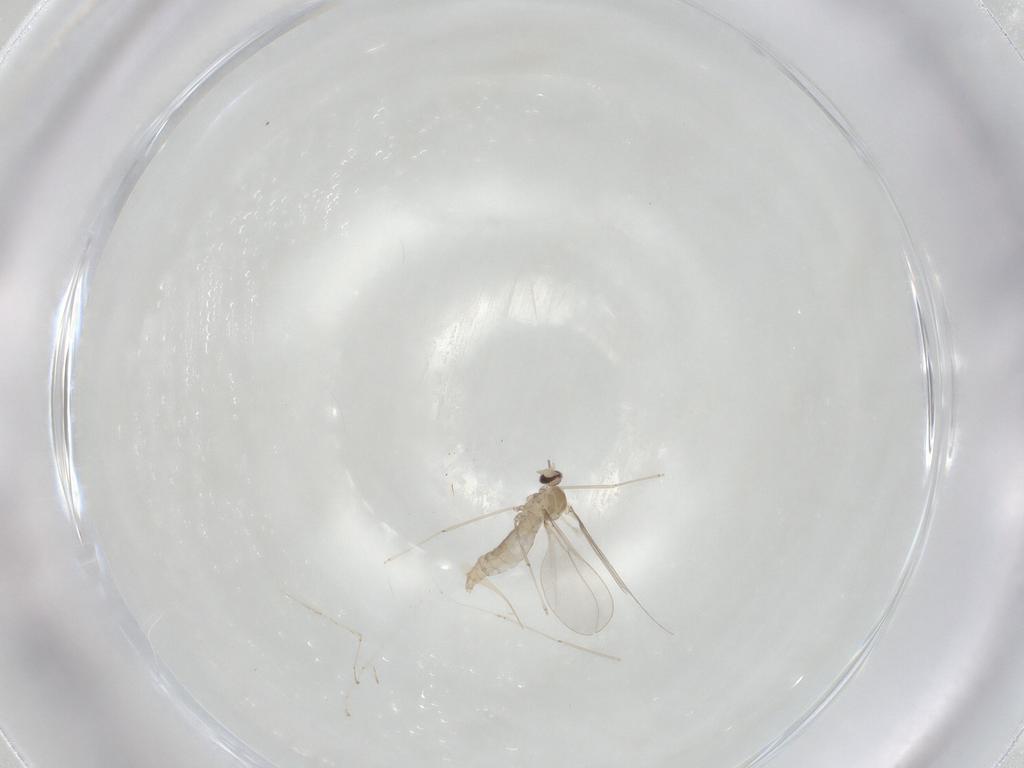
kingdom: Animalia
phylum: Arthropoda
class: Insecta
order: Diptera
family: Cecidomyiidae
